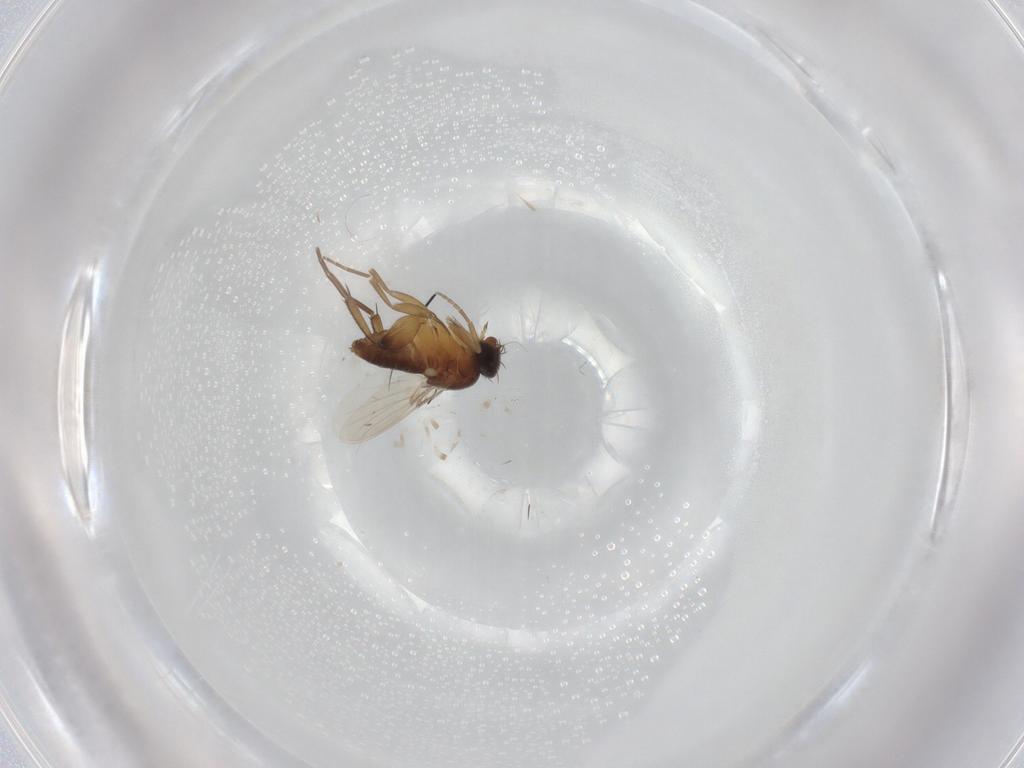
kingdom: Animalia
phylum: Arthropoda
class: Insecta
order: Diptera
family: Phoridae
